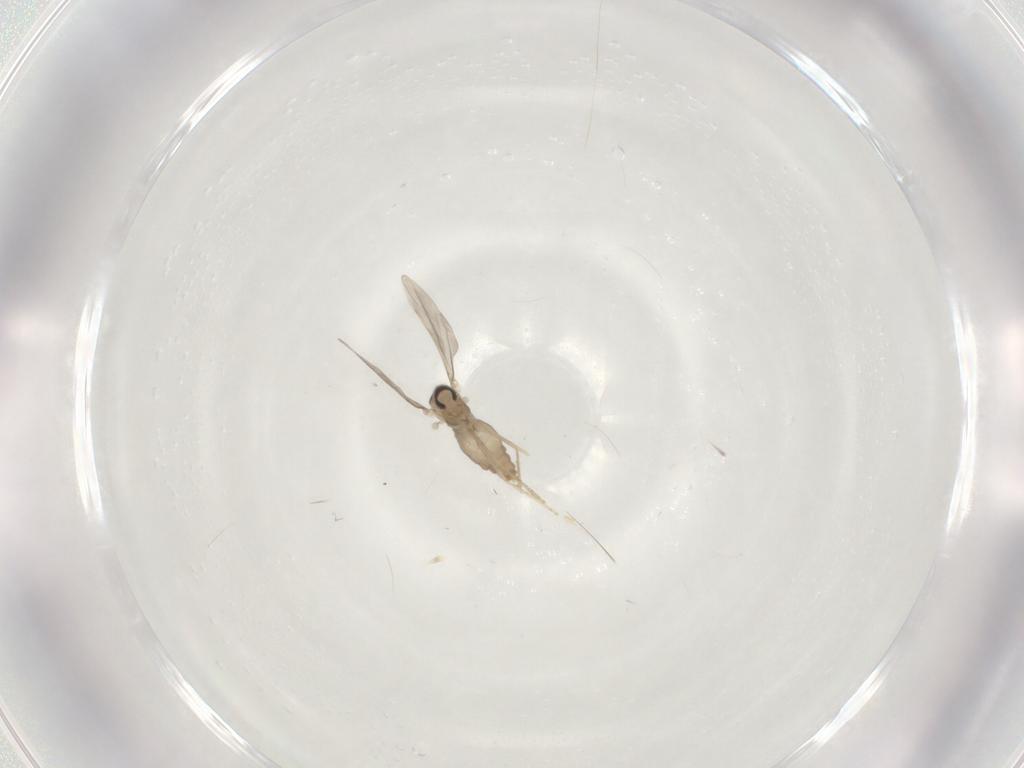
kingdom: Animalia
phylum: Arthropoda
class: Insecta
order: Diptera
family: Cecidomyiidae
